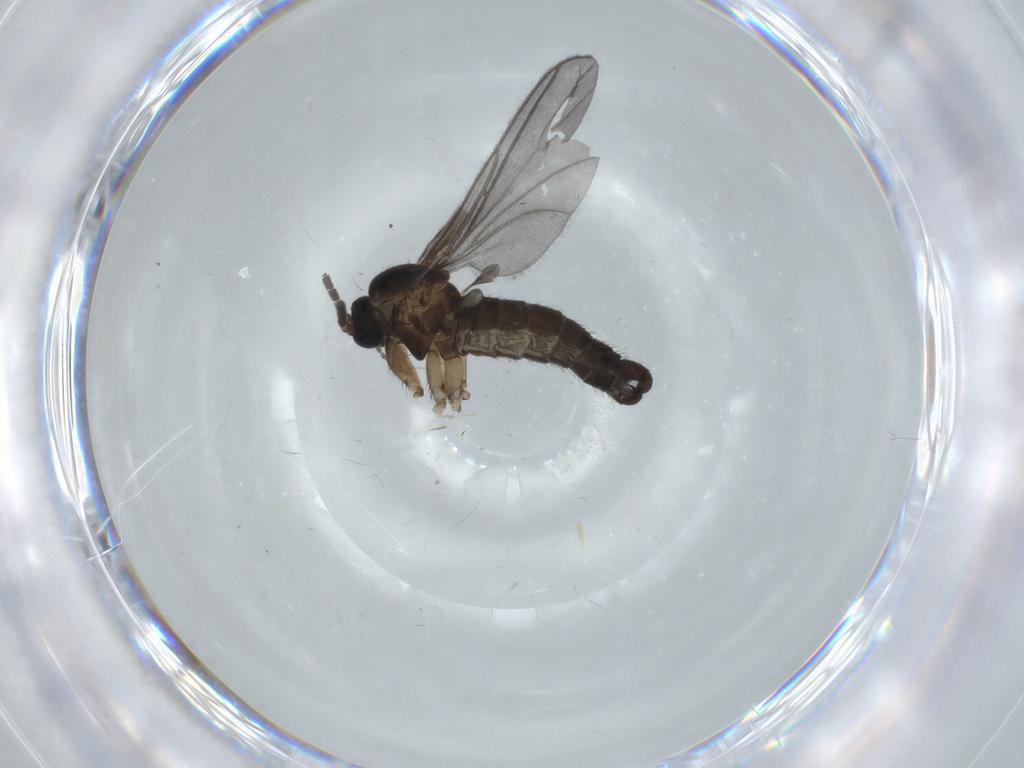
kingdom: Animalia
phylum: Arthropoda
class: Insecta
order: Diptera
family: Sciaridae
